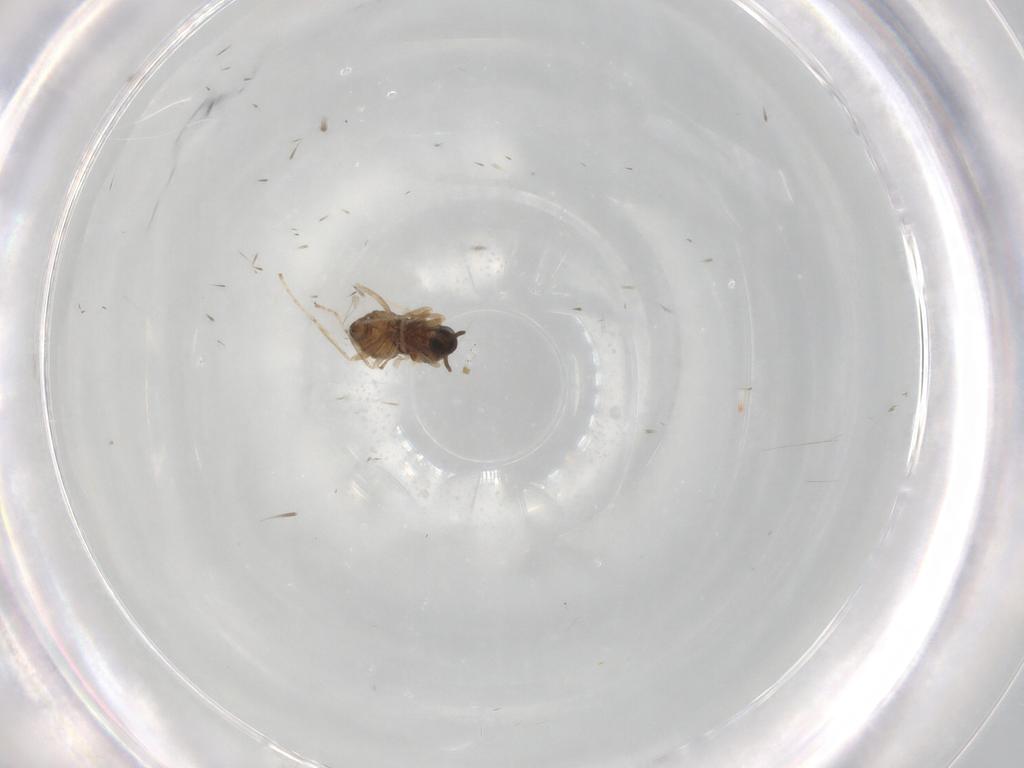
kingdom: Animalia
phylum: Arthropoda
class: Insecta
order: Diptera
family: Cecidomyiidae
